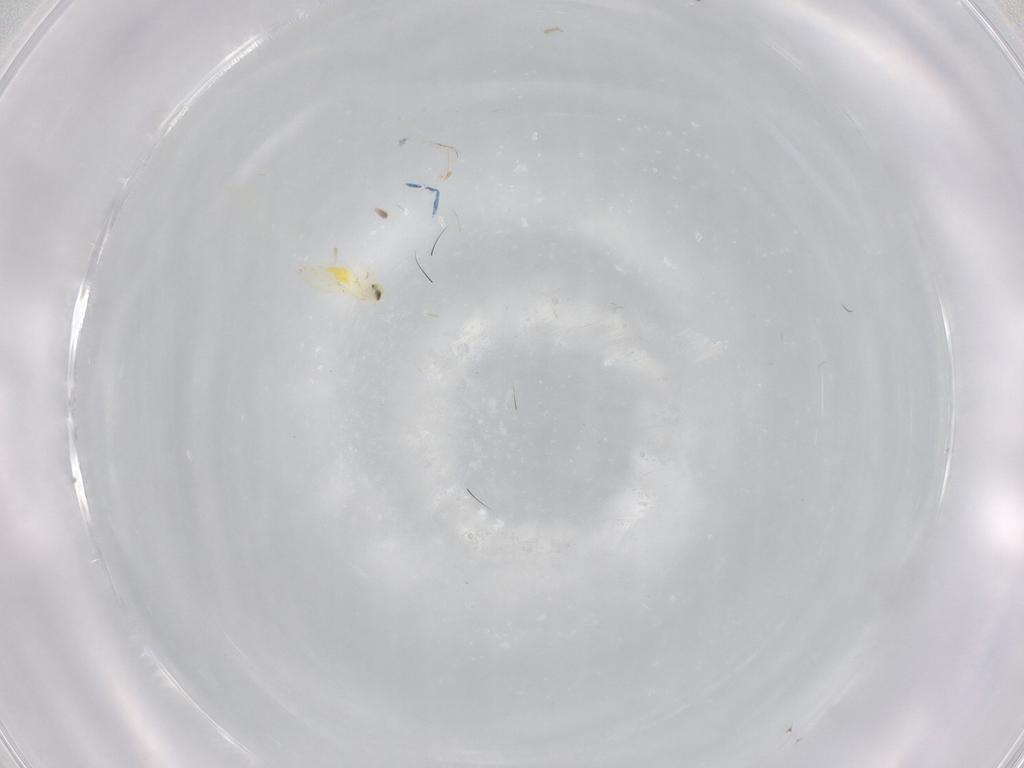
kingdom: Animalia
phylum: Arthropoda
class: Insecta
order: Hemiptera
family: Aleyrodidae
